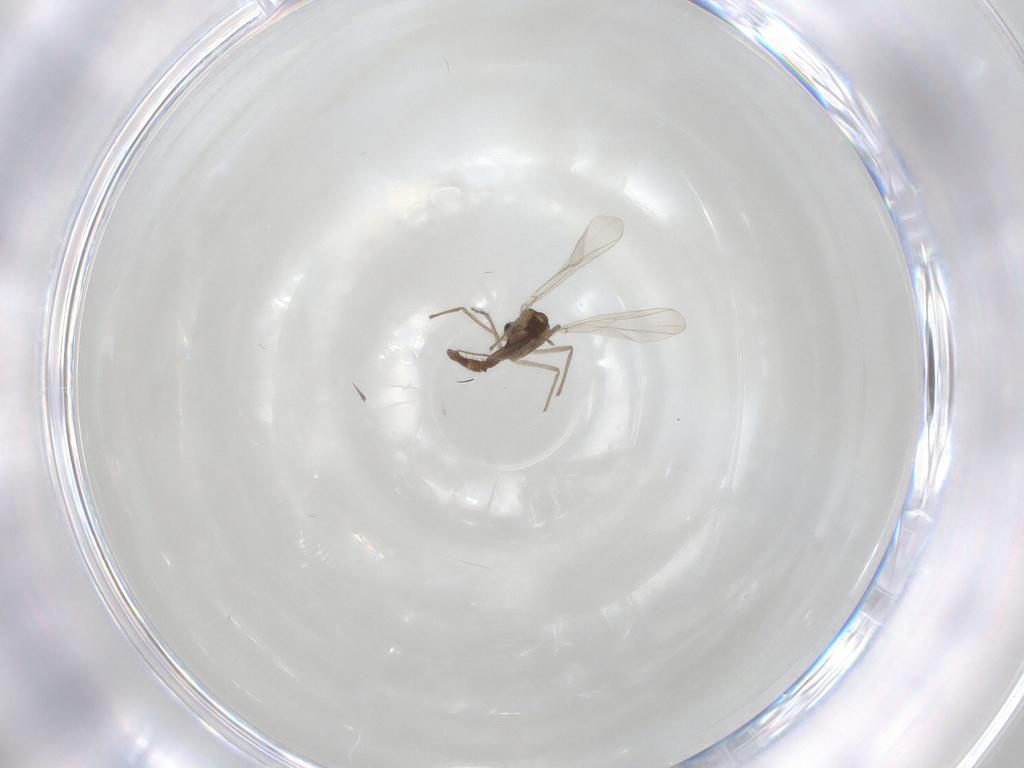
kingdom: Animalia
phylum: Arthropoda
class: Insecta
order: Diptera
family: Chironomidae
